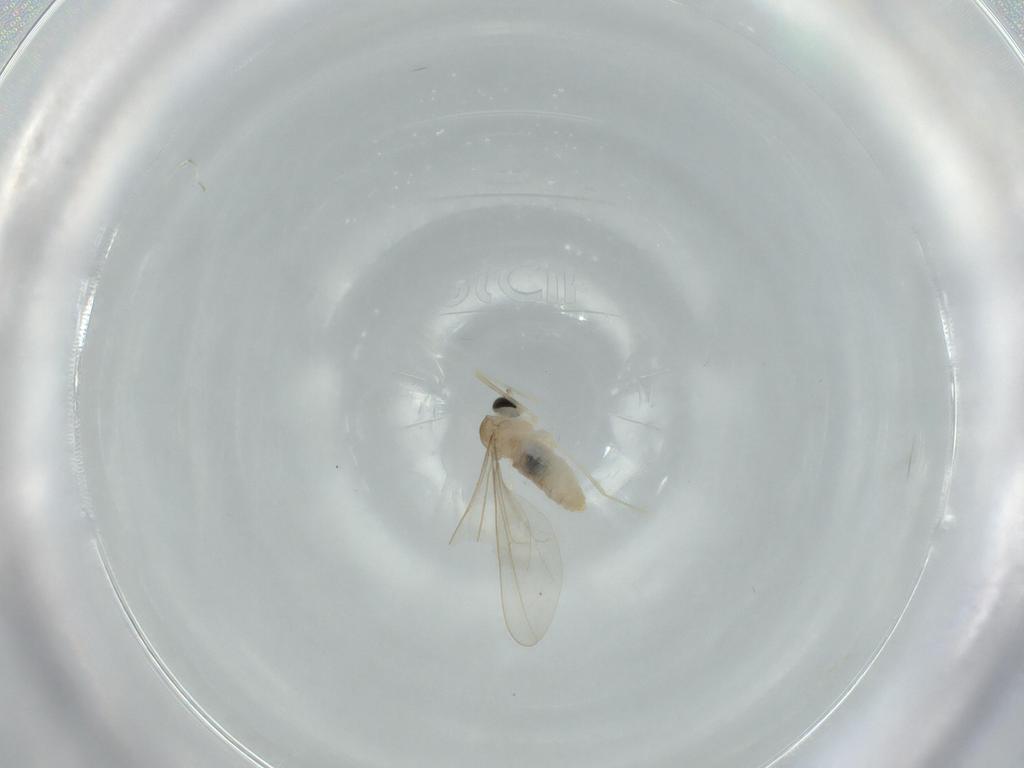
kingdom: Animalia
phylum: Arthropoda
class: Insecta
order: Diptera
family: Cecidomyiidae
